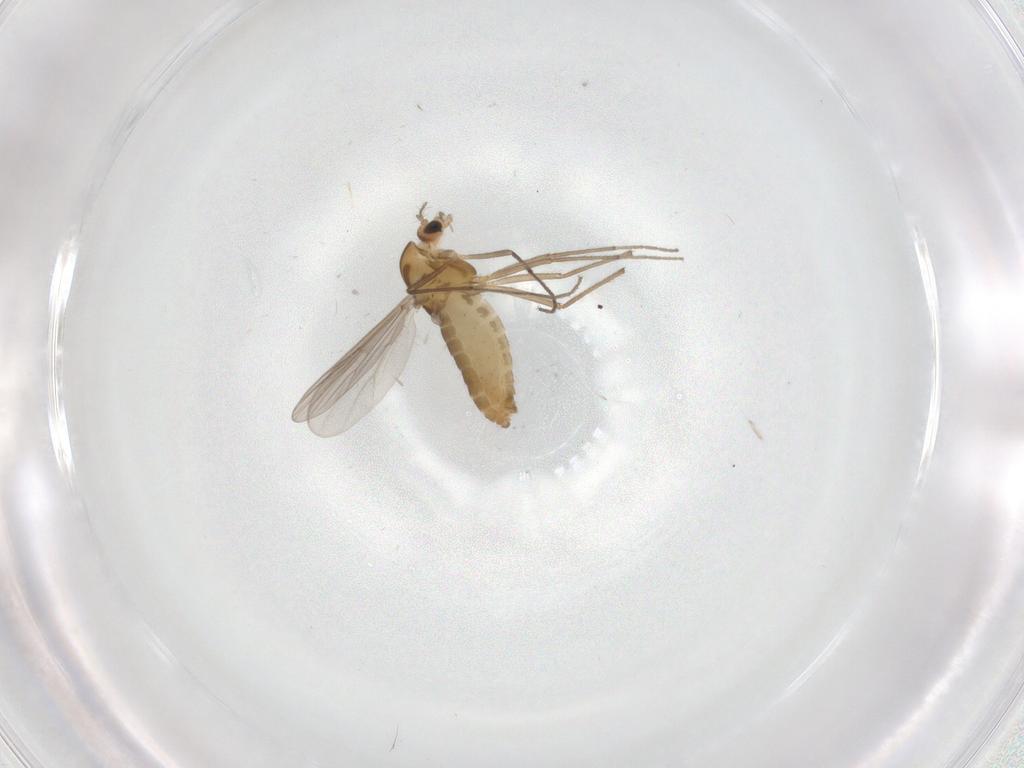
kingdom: Animalia
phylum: Arthropoda
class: Insecta
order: Diptera
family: Chironomidae
